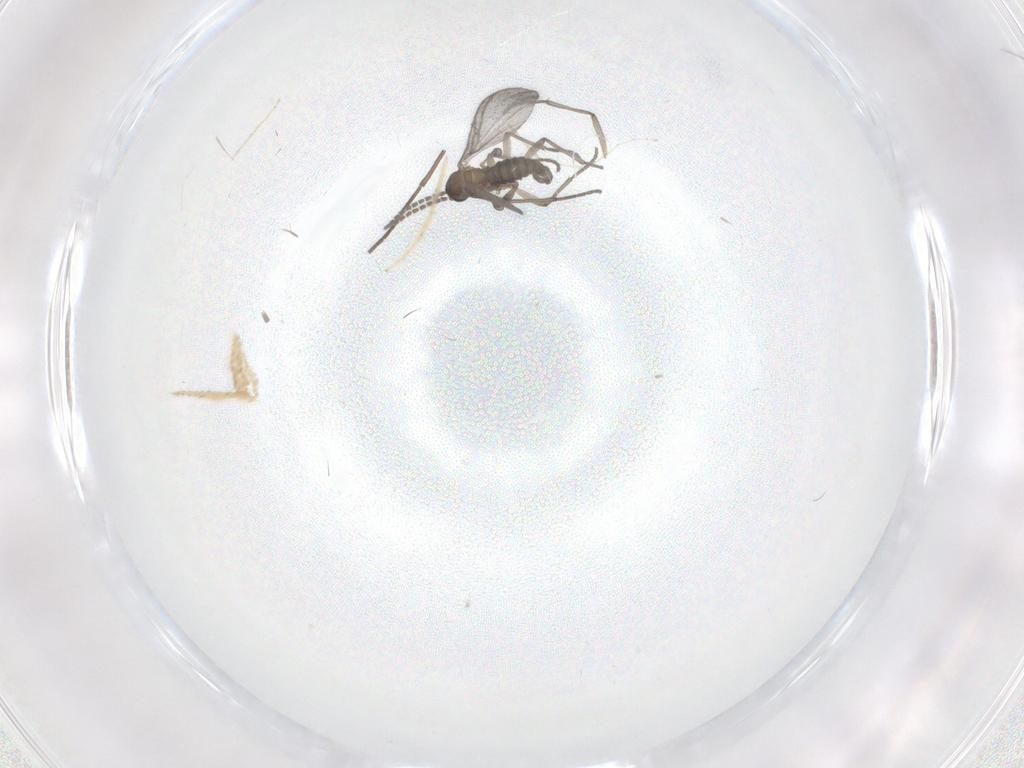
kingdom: Animalia
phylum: Arthropoda
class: Insecta
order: Diptera
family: Sciaridae
